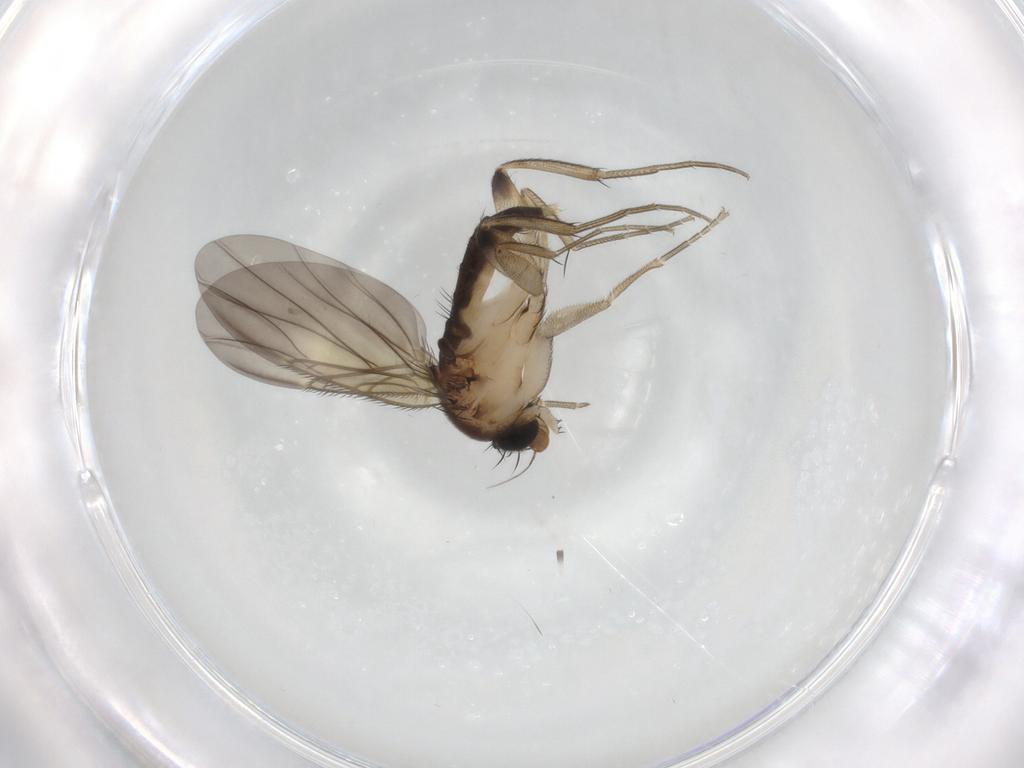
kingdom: Animalia
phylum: Arthropoda
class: Insecta
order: Diptera
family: Phoridae
